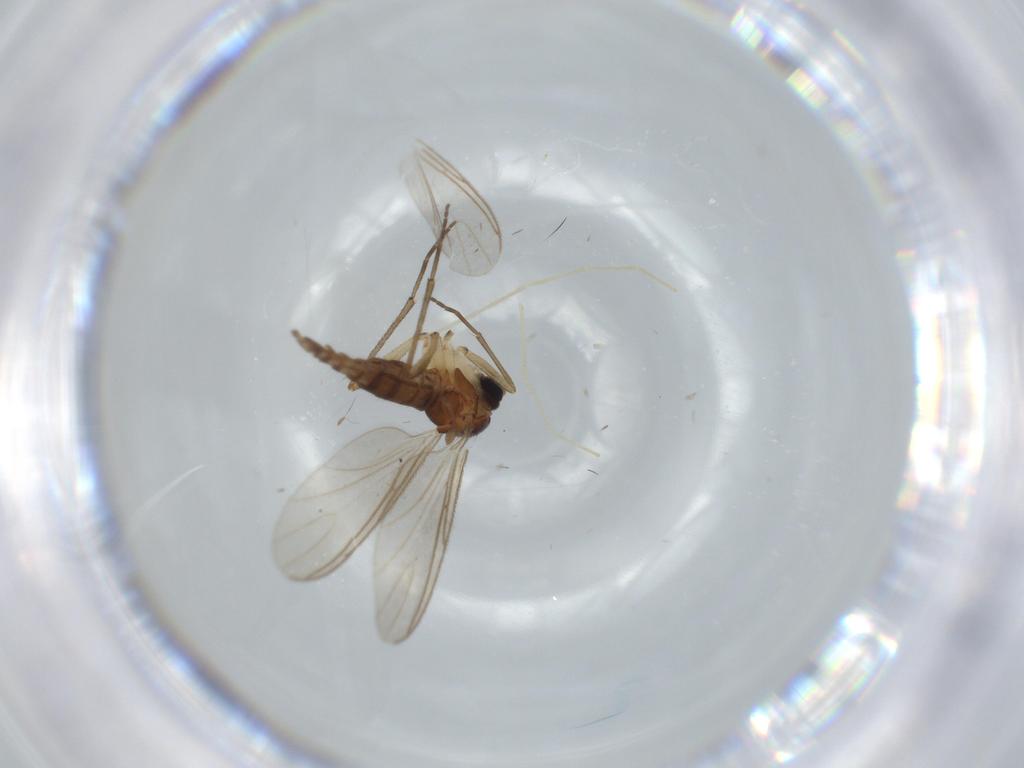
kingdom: Animalia
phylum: Arthropoda
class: Insecta
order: Diptera
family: Sciaridae
